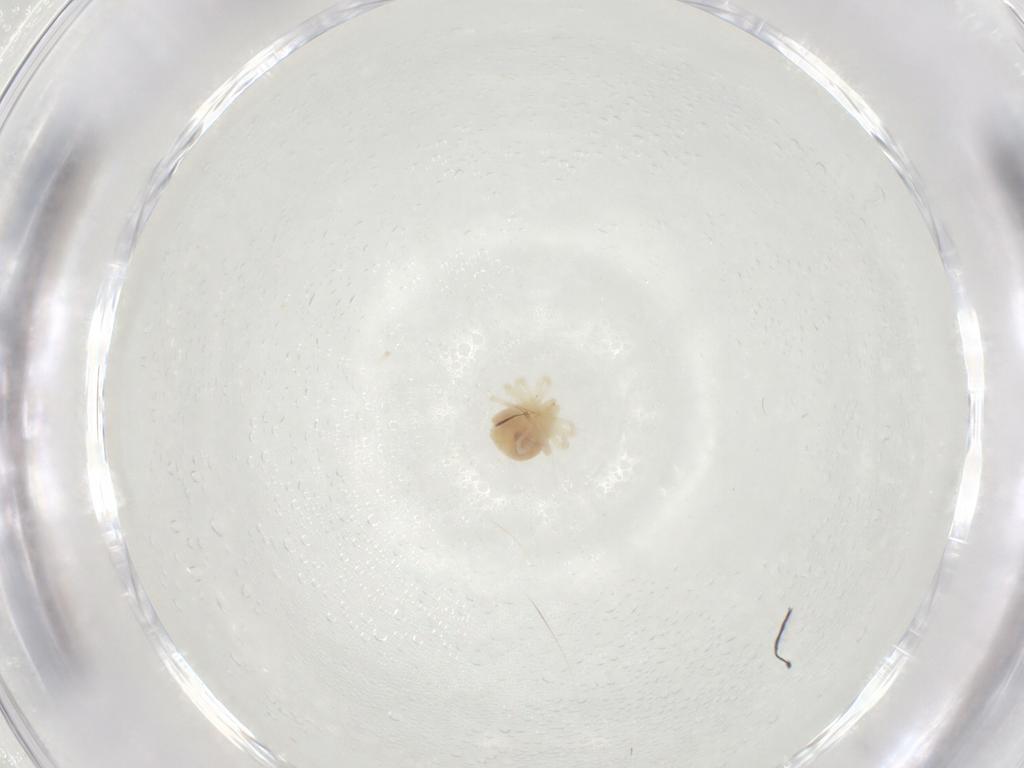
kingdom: Animalia
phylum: Arthropoda
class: Arachnida
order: Trombidiformes
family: Anystidae
